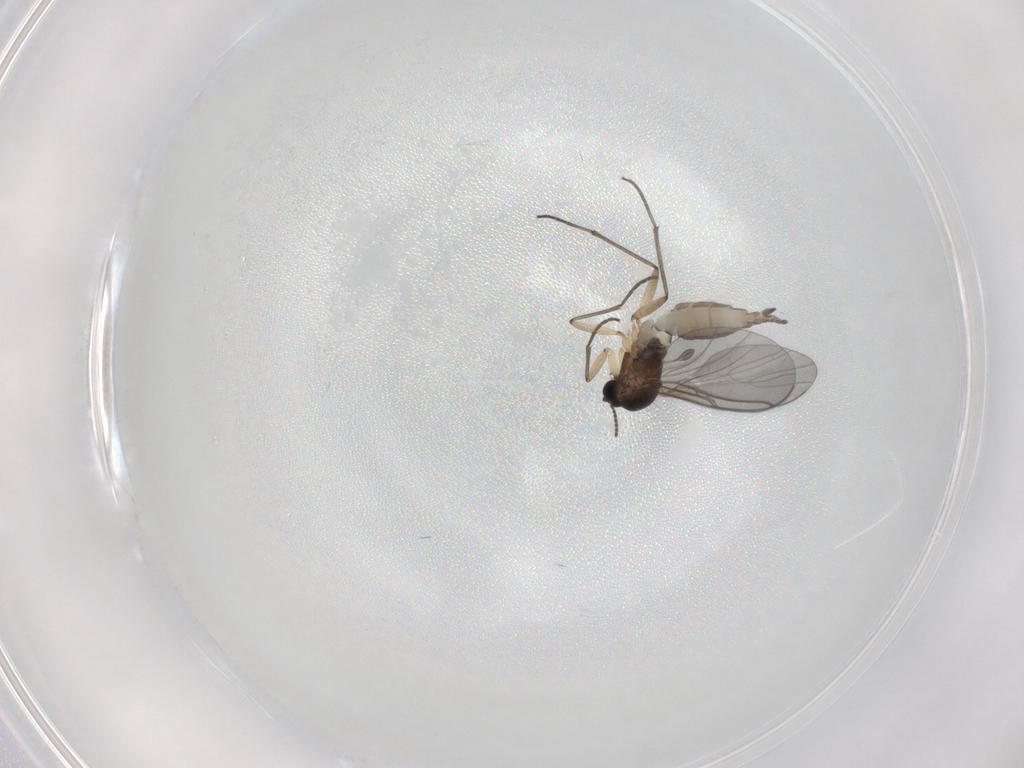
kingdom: Animalia
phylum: Arthropoda
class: Insecta
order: Diptera
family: Sciaridae
